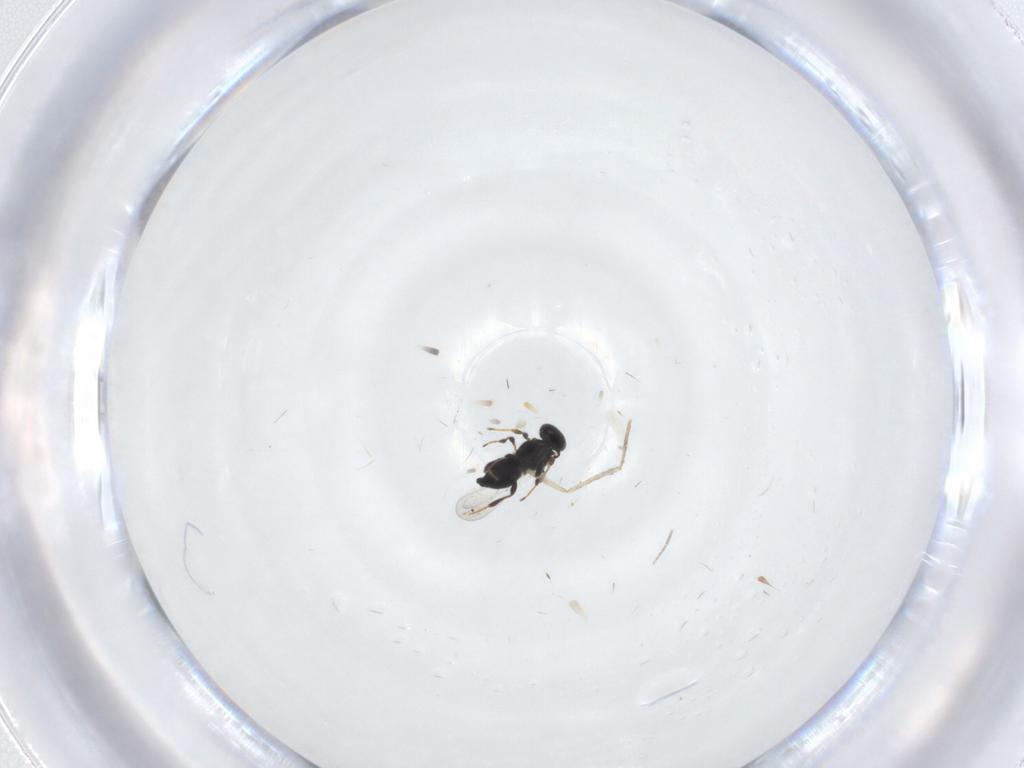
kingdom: Animalia
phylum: Arthropoda
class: Insecta
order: Hymenoptera
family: Platygastridae
